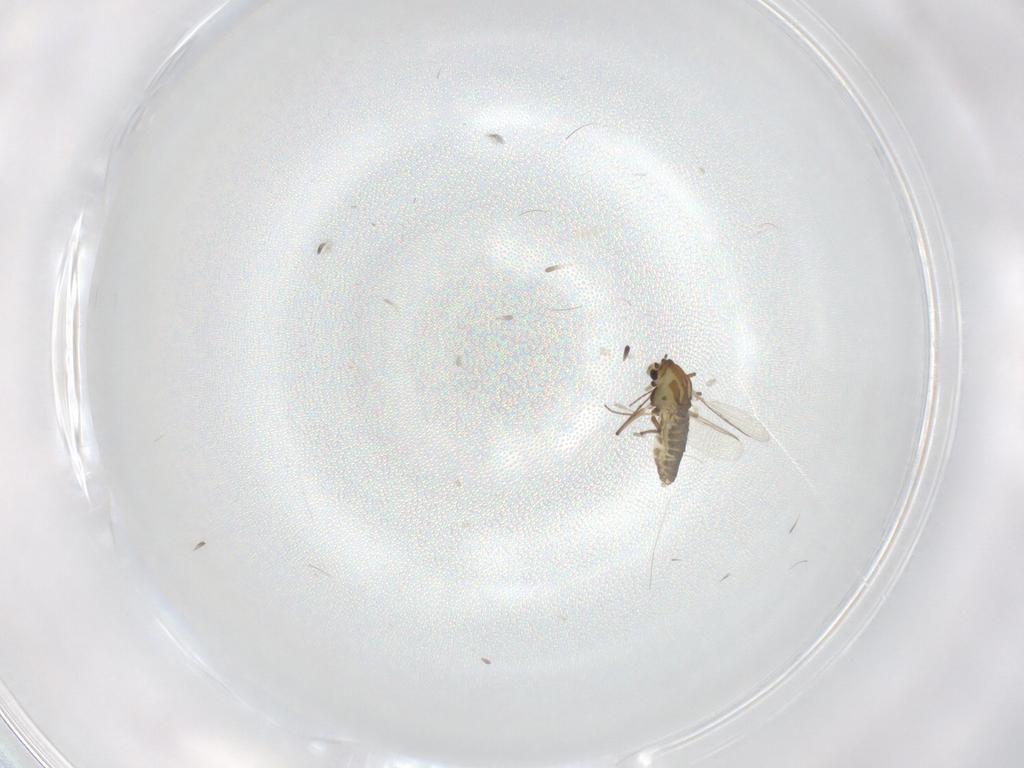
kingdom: Animalia
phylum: Arthropoda
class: Insecta
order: Diptera
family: Chironomidae
